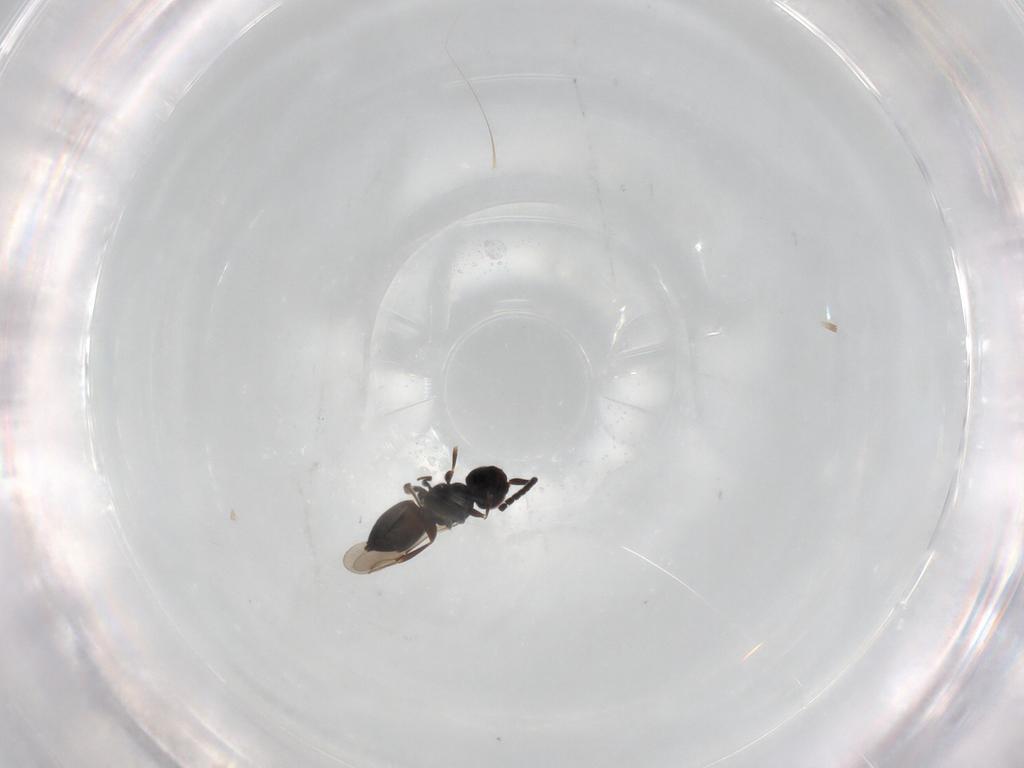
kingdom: Animalia
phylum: Arthropoda
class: Insecta
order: Hymenoptera
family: Ceraphronidae
